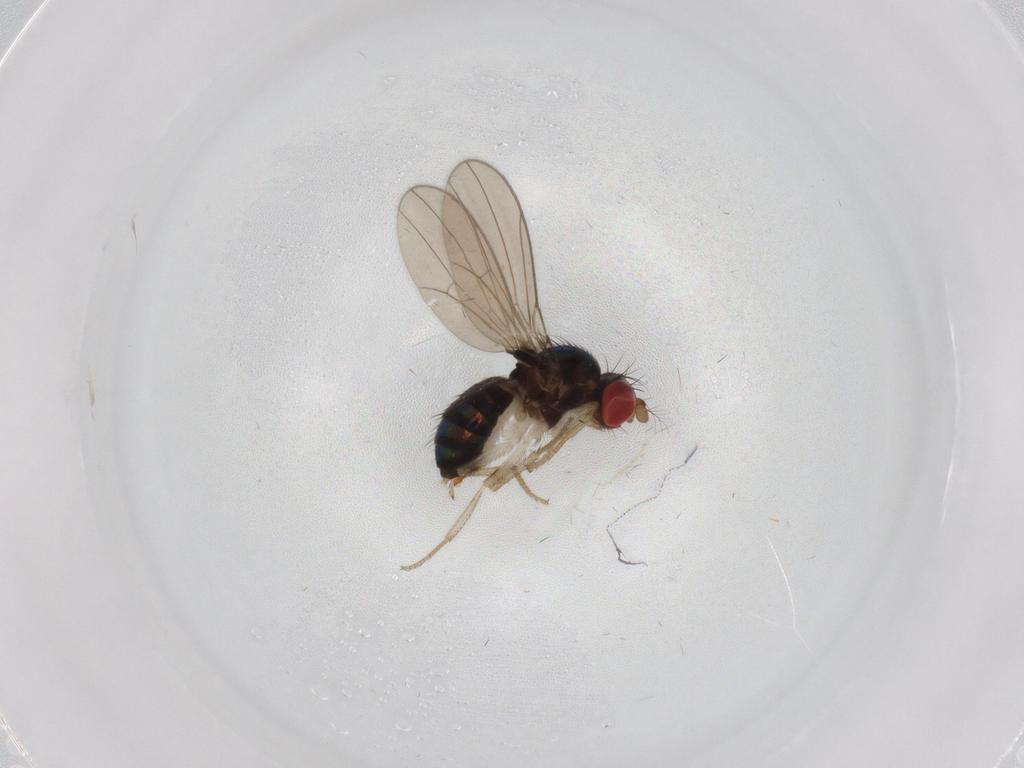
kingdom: Animalia
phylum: Arthropoda
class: Insecta
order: Diptera
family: Drosophilidae
